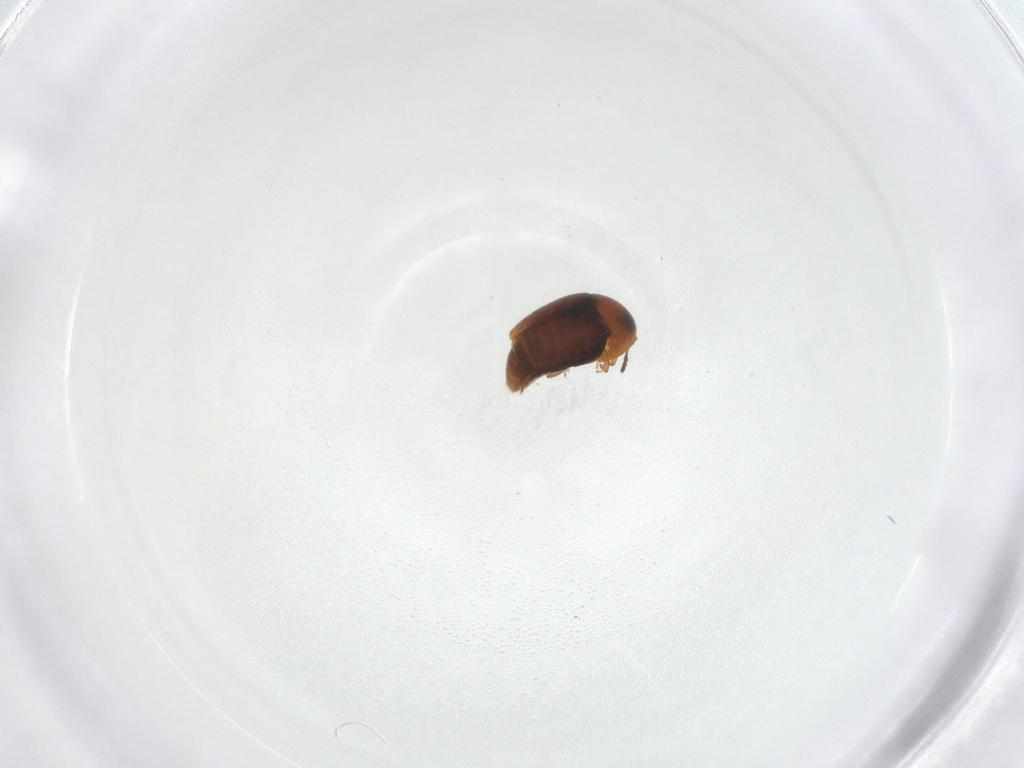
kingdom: Animalia
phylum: Arthropoda
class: Insecta
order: Coleoptera
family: Corylophidae
